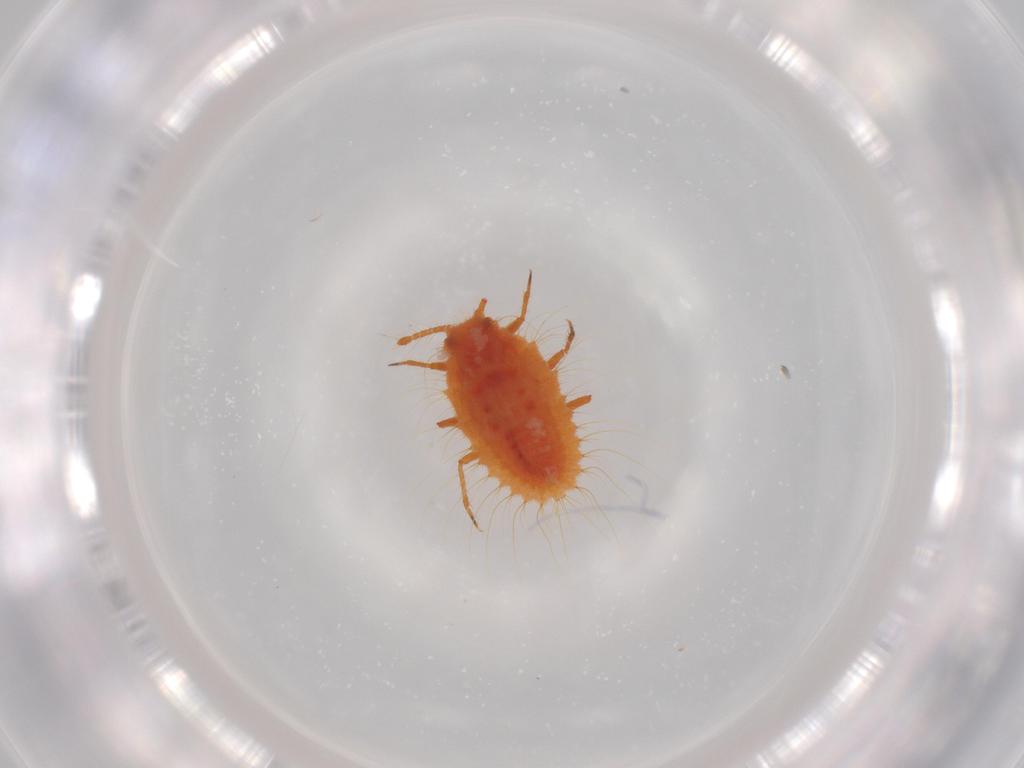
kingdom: Animalia
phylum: Arthropoda
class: Insecta
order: Hemiptera
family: Coccoidea_incertae_sedis
